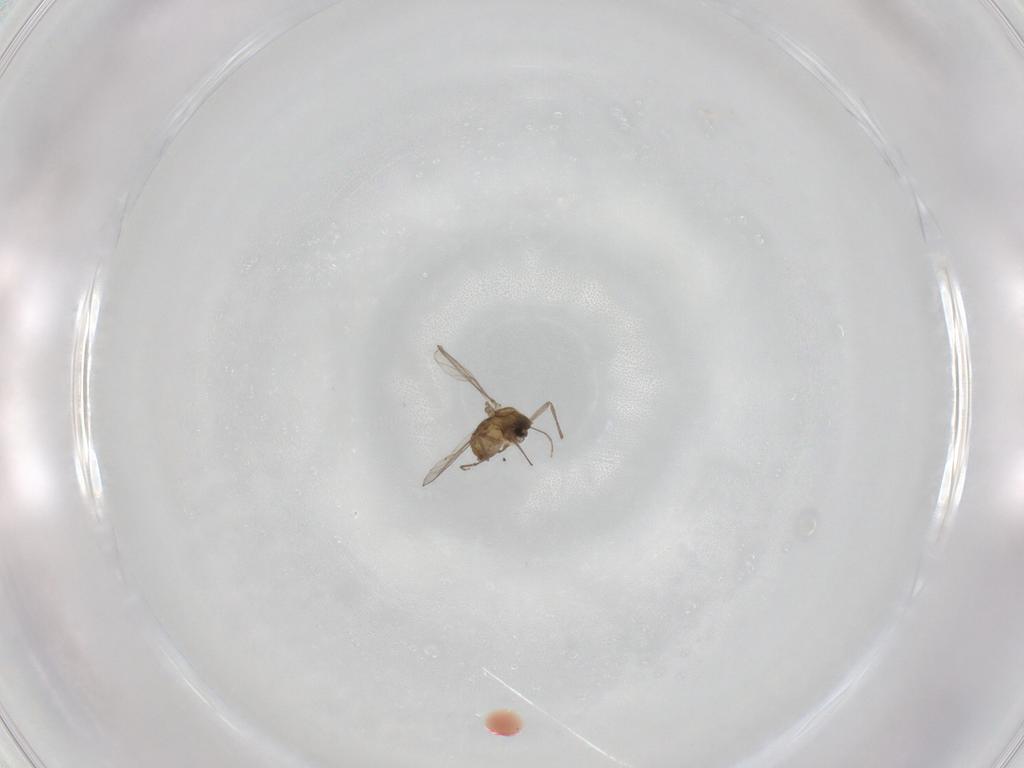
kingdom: Animalia
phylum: Arthropoda
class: Insecta
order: Diptera
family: Chironomidae
